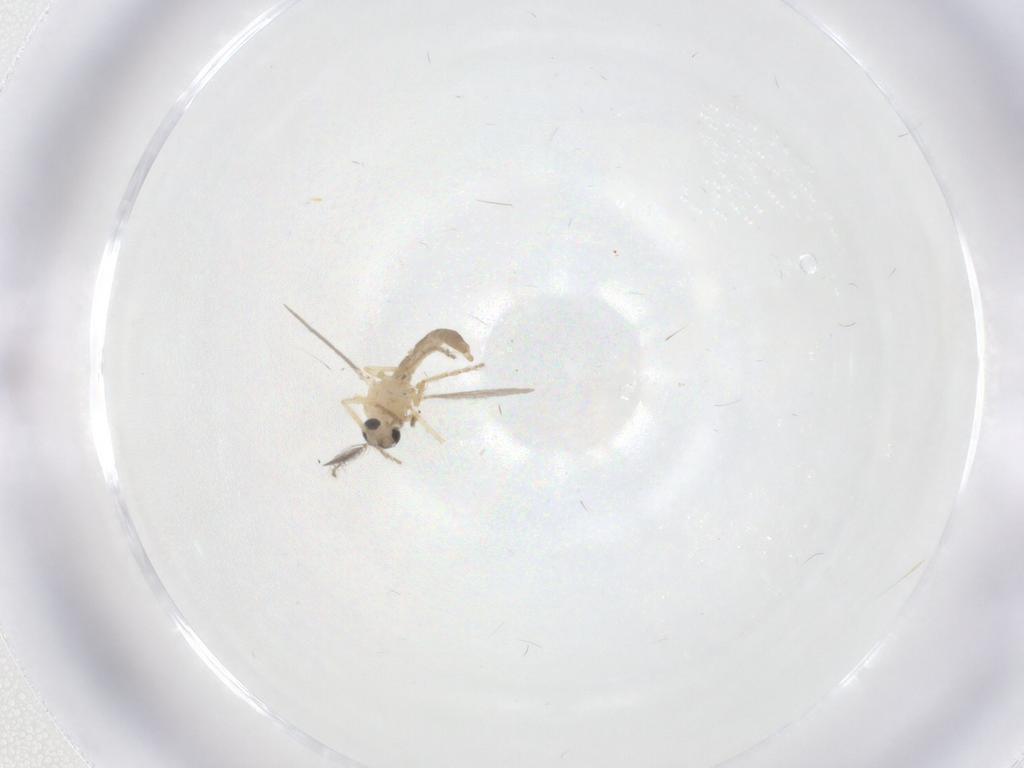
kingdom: Animalia
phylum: Arthropoda
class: Insecta
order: Diptera
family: Ceratopogonidae
